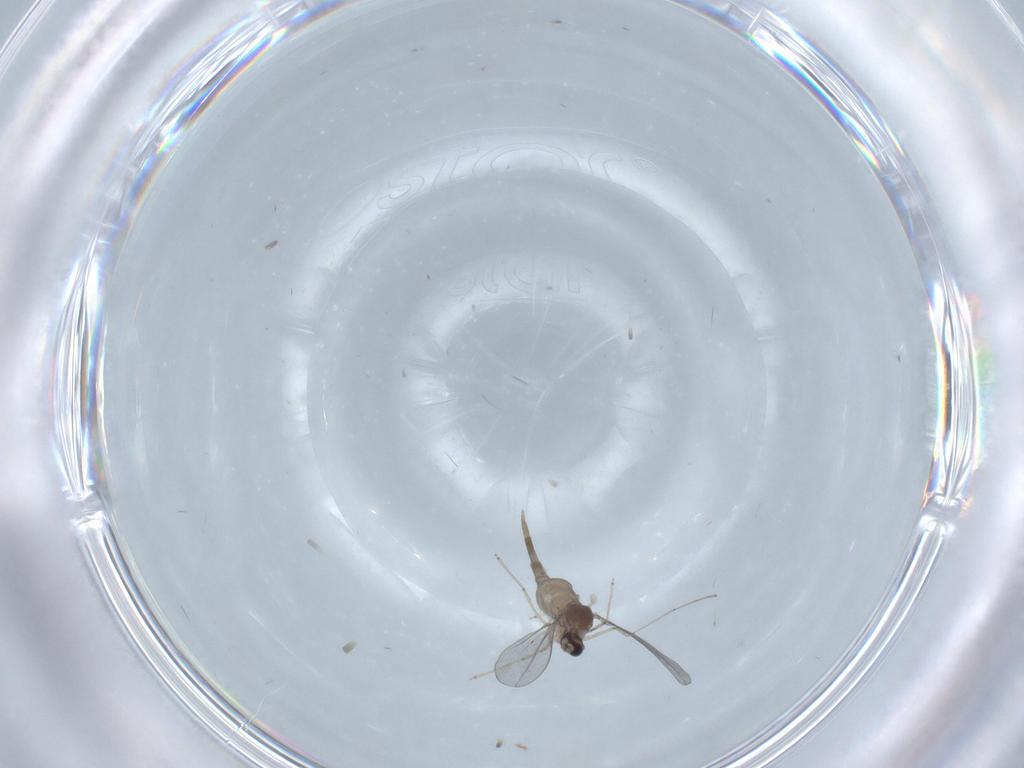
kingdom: Animalia
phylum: Arthropoda
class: Insecta
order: Diptera
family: Cecidomyiidae
